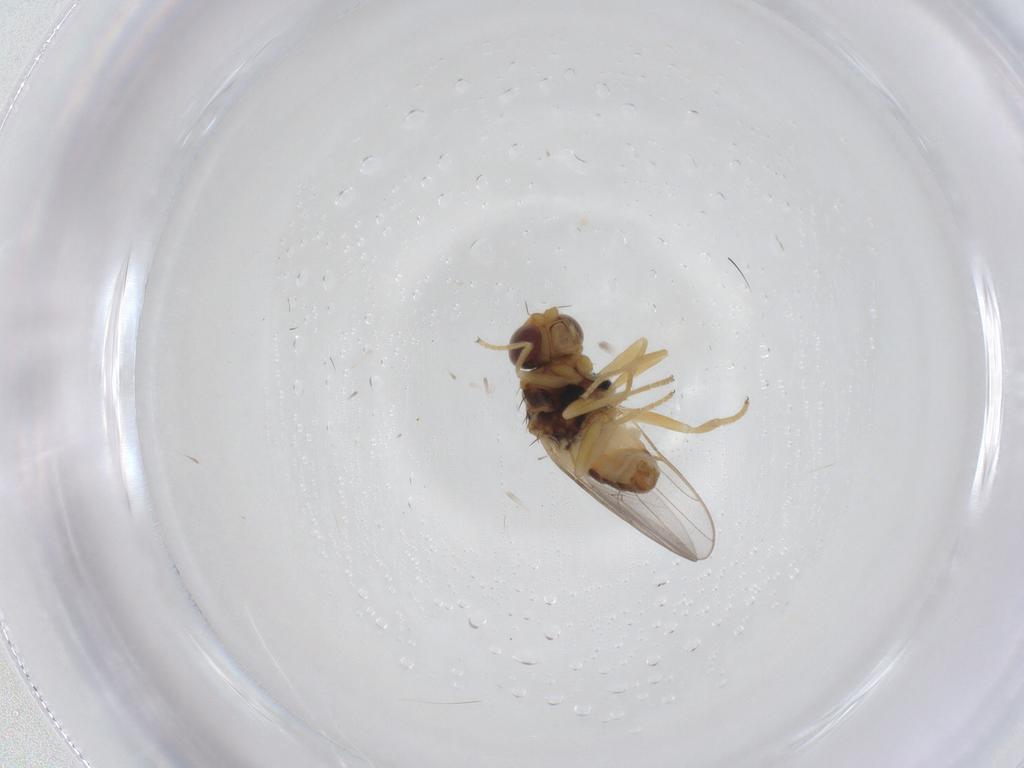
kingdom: Animalia
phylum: Arthropoda
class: Insecta
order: Diptera
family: Chloropidae
